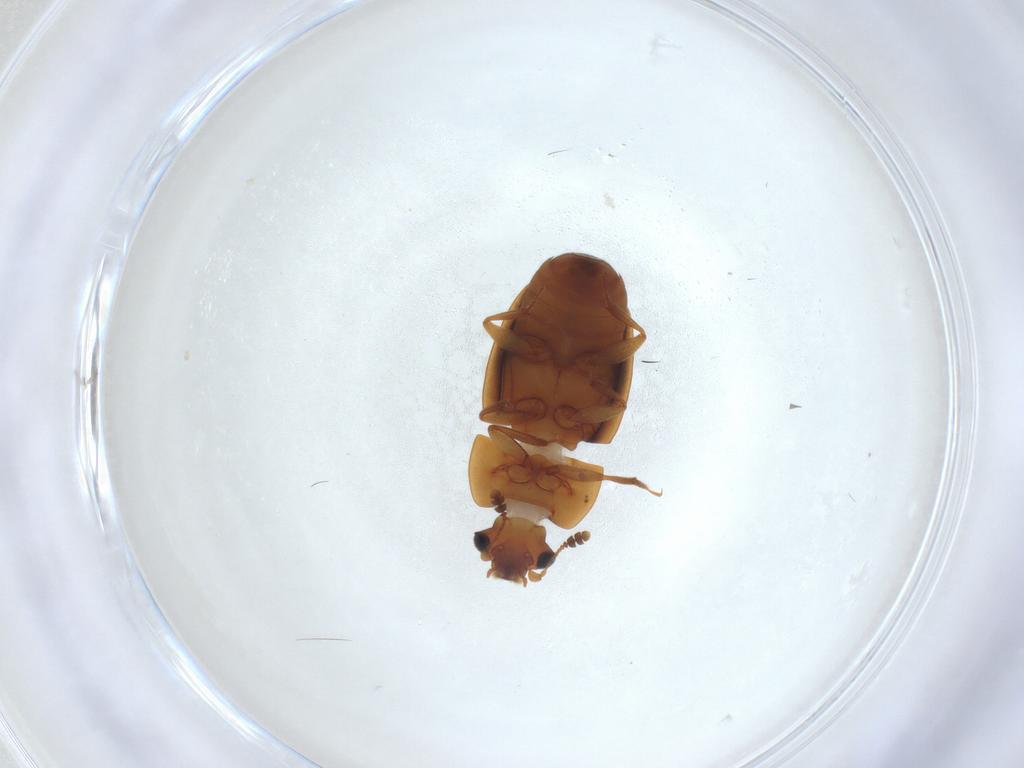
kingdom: Animalia
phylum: Arthropoda
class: Insecta
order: Coleoptera
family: Nitidulidae
